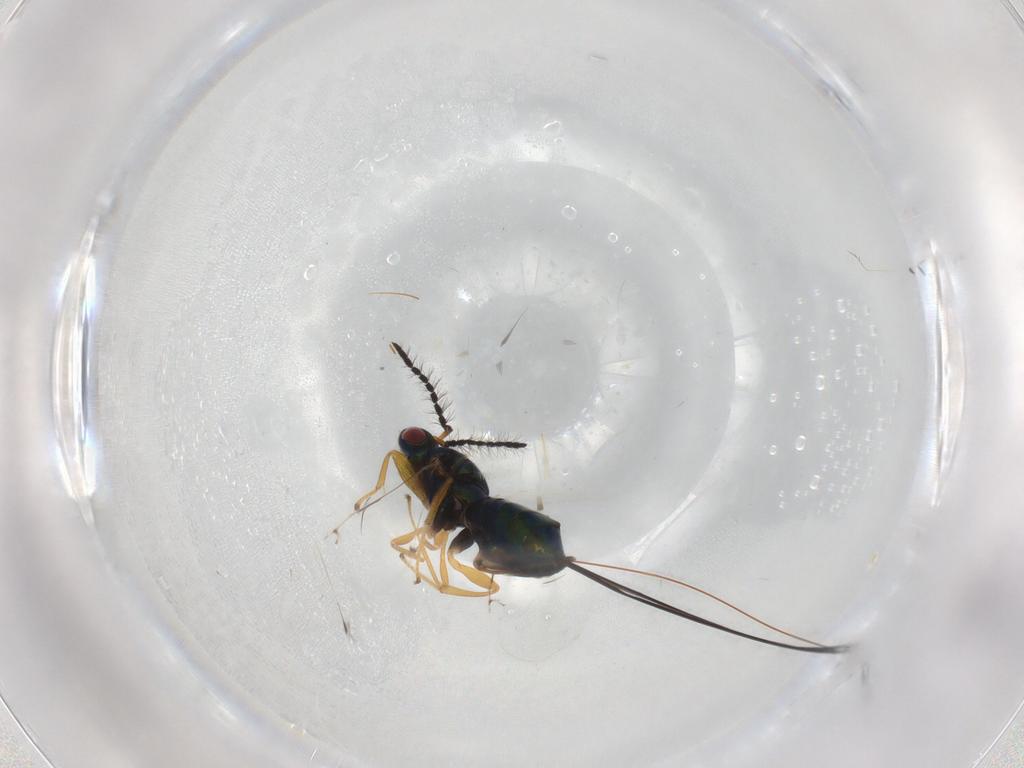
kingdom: Animalia
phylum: Arthropoda
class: Insecta
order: Hymenoptera
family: Pteromalidae
